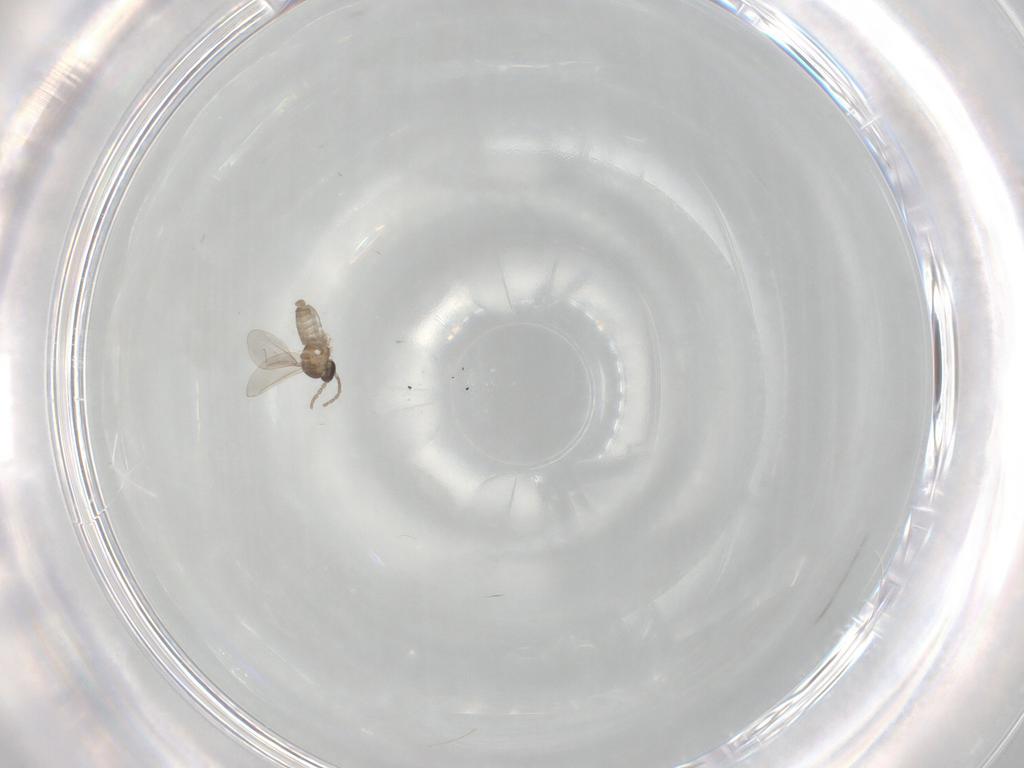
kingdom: Animalia
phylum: Arthropoda
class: Insecta
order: Diptera
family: Cecidomyiidae
